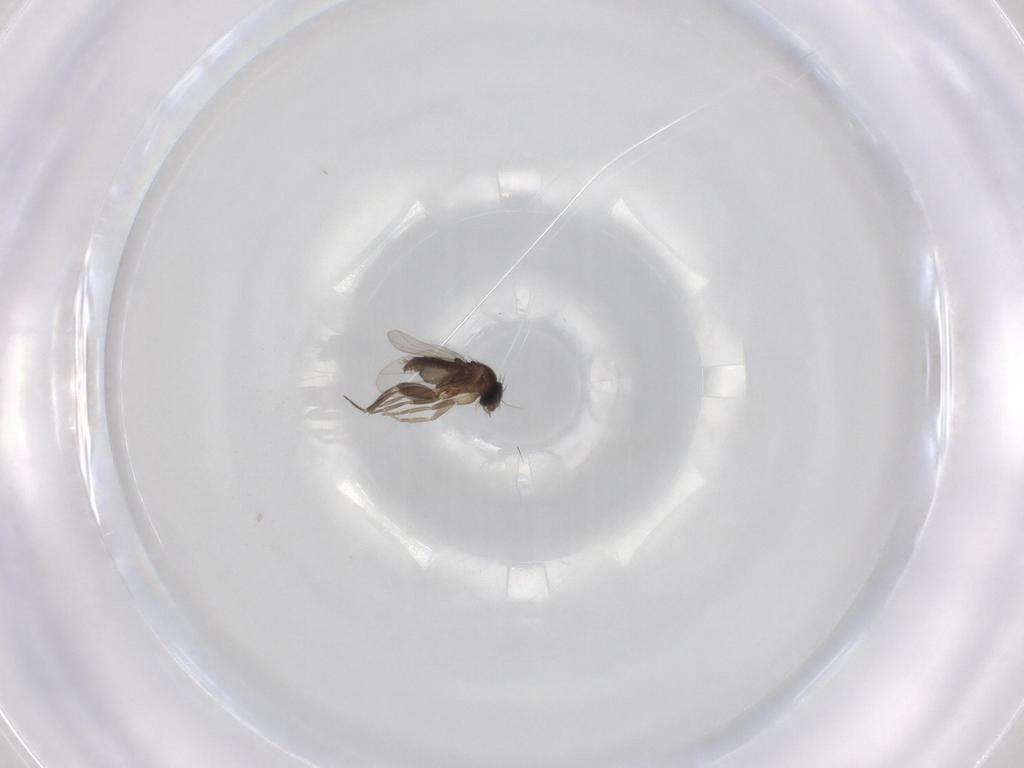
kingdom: Animalia
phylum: Arthropoda
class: Insecta
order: Diptera
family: Phoridae
